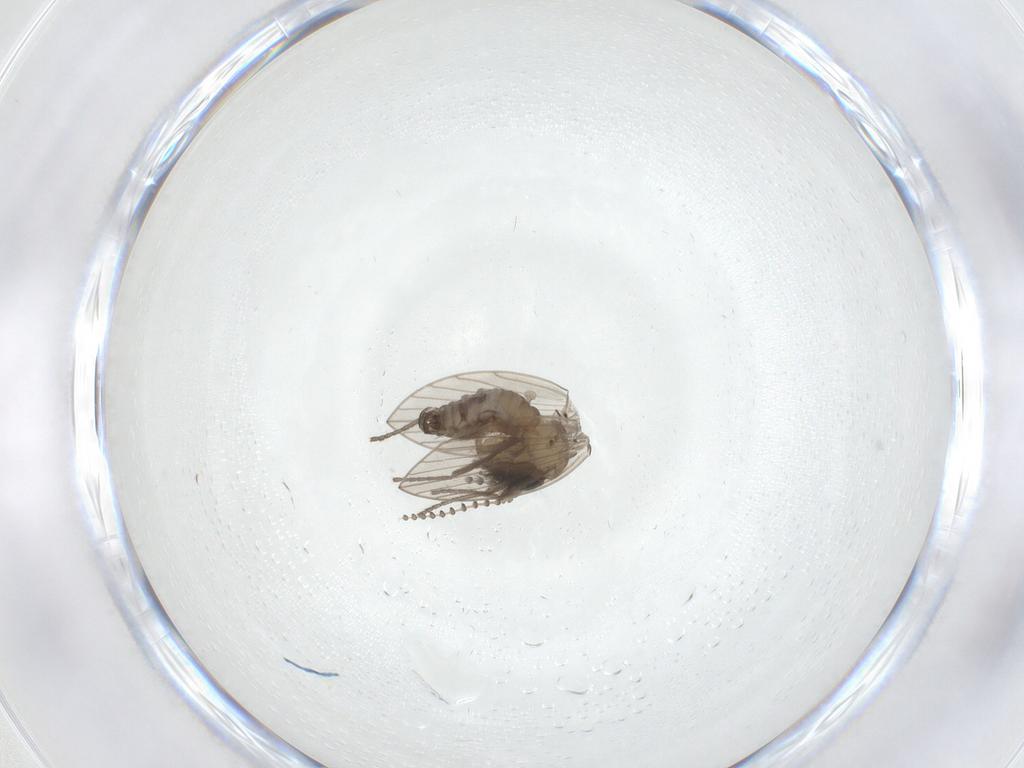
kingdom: Animalia
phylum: Arthropoda
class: Insecta
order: Diptera
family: Psychodidae
